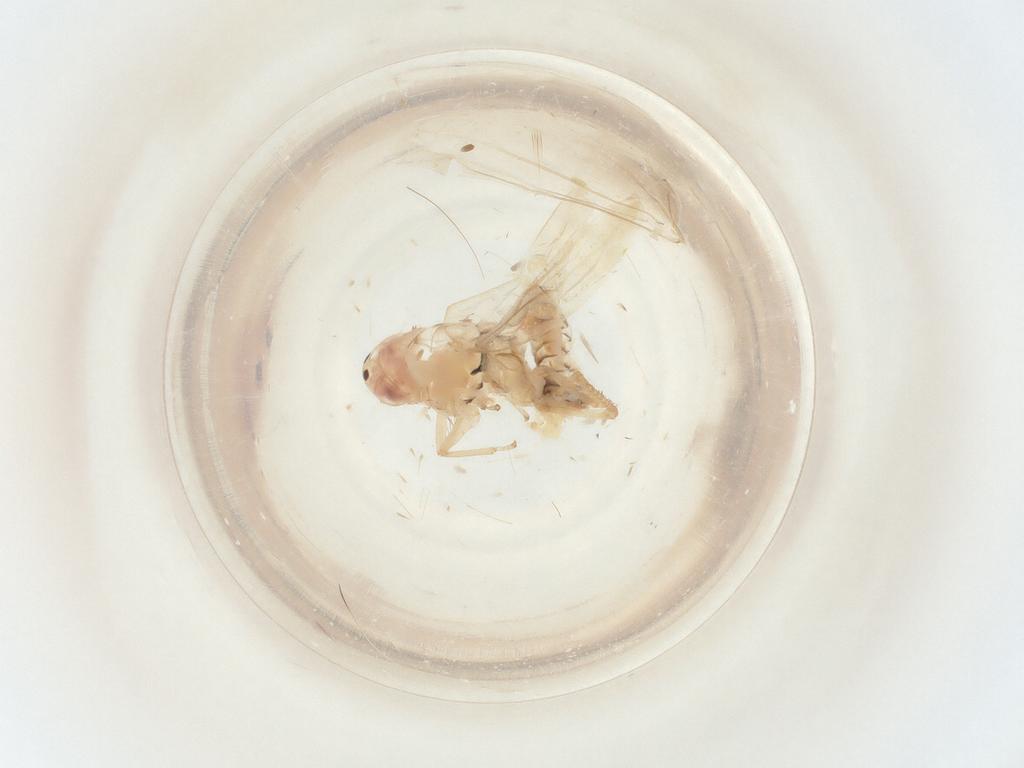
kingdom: Animalia
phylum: Arthropoda
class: Insecta
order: Hemiptera
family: Cicadellidae
